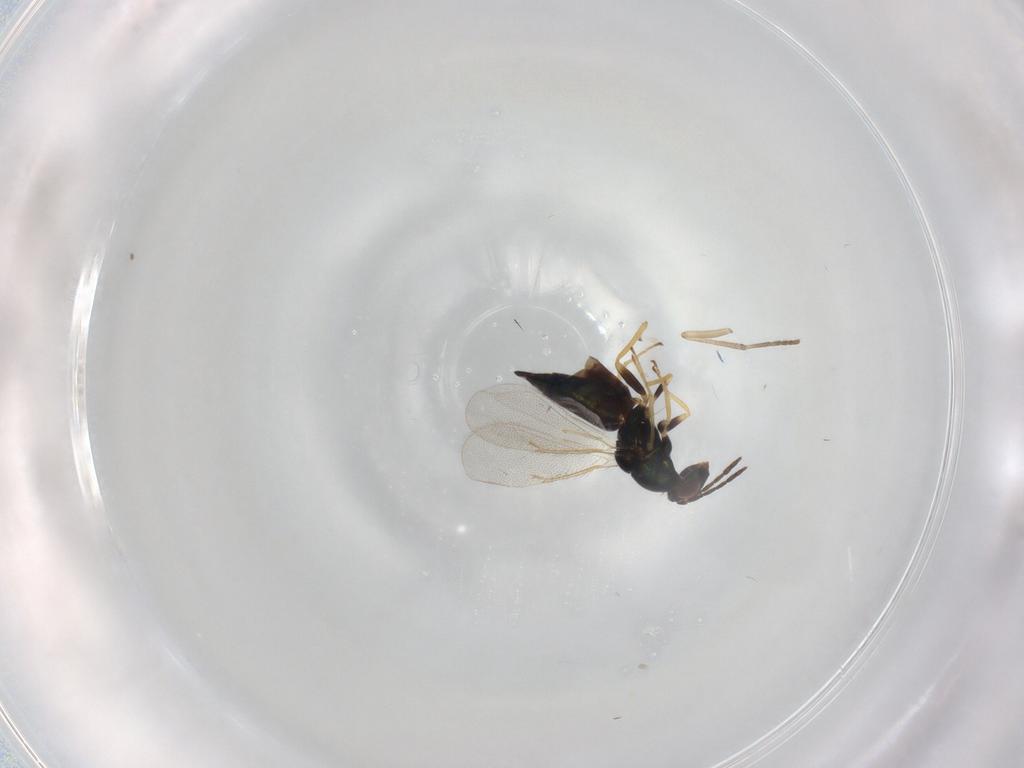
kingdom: Animalia
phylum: Arthropoda
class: Insecta
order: Hymenoptera
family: Eulophidae
